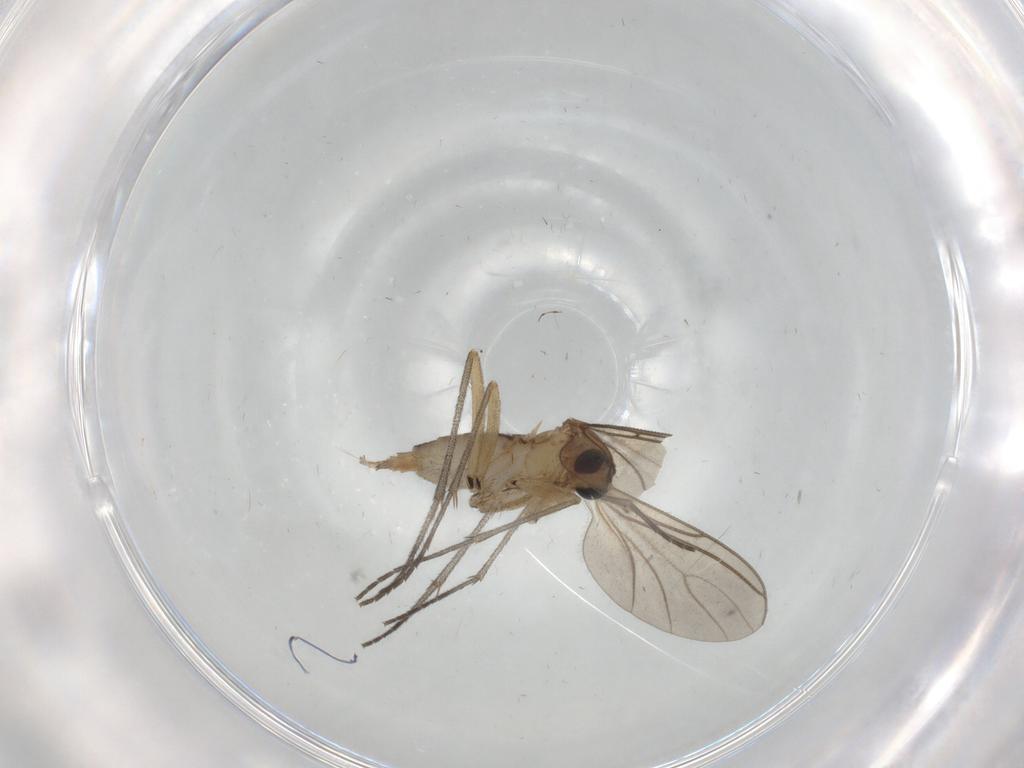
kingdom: Animalia
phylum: Arthropoda
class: Insecta
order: Diptera
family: Sciaridae
